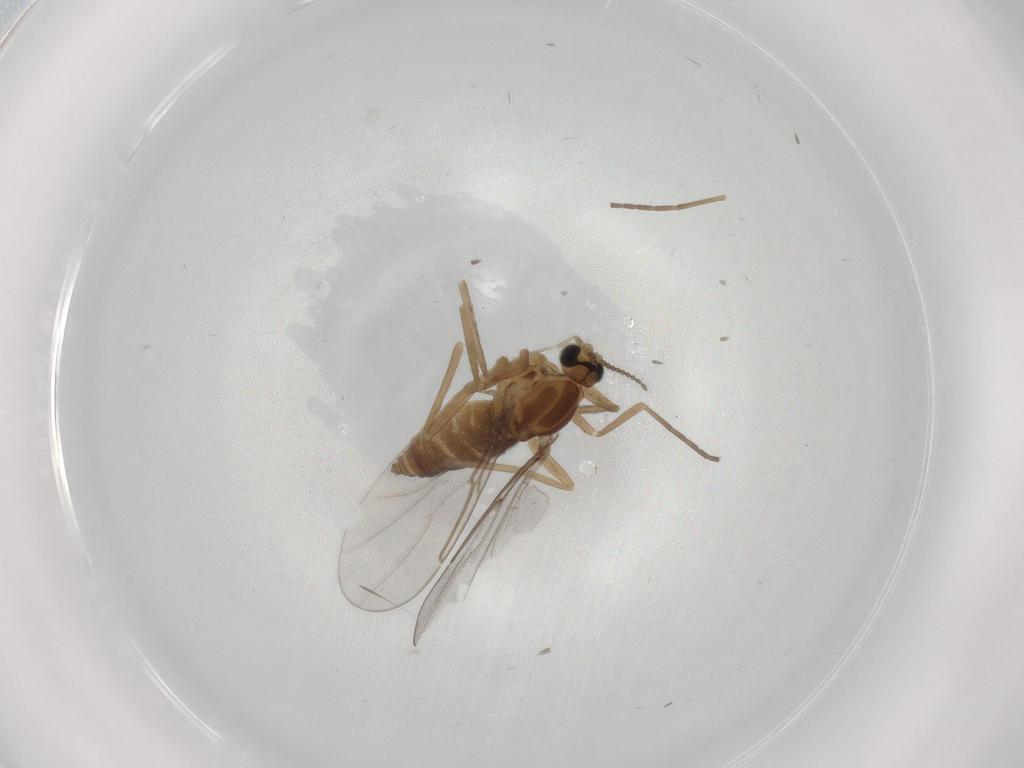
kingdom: Animalia
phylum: Arthropoda
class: Insecta
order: Diptera
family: Cecidomyiidae
